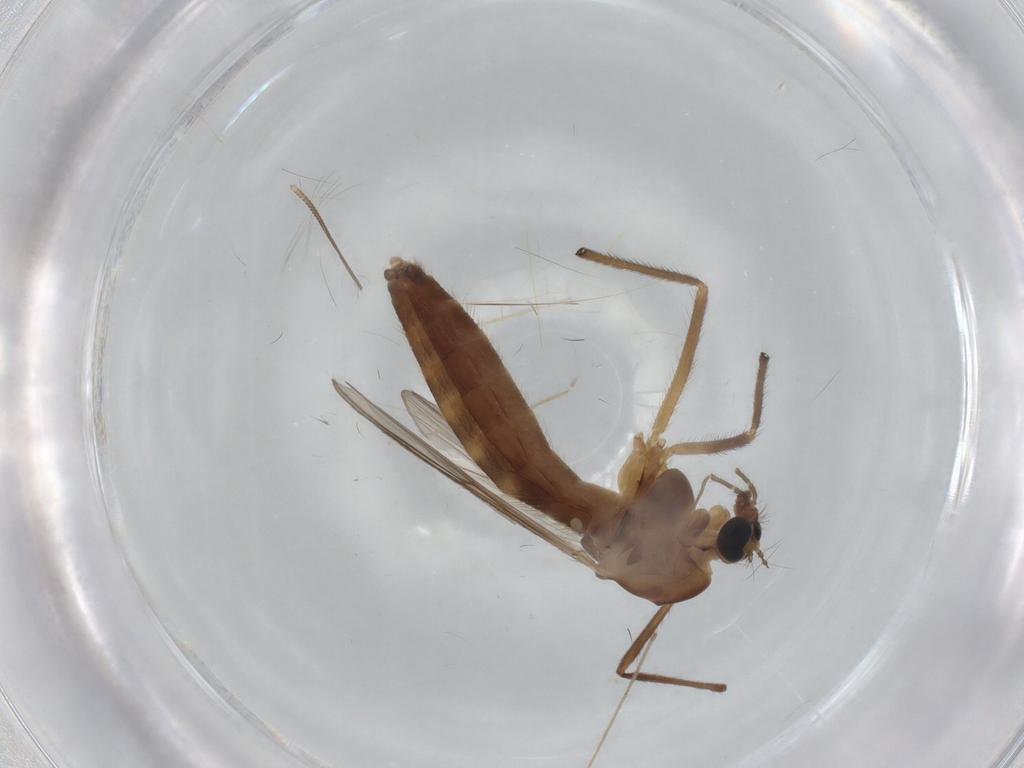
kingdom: Animalia
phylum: Arthropoda
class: Insecta
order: Diptera
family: Chironomidae
